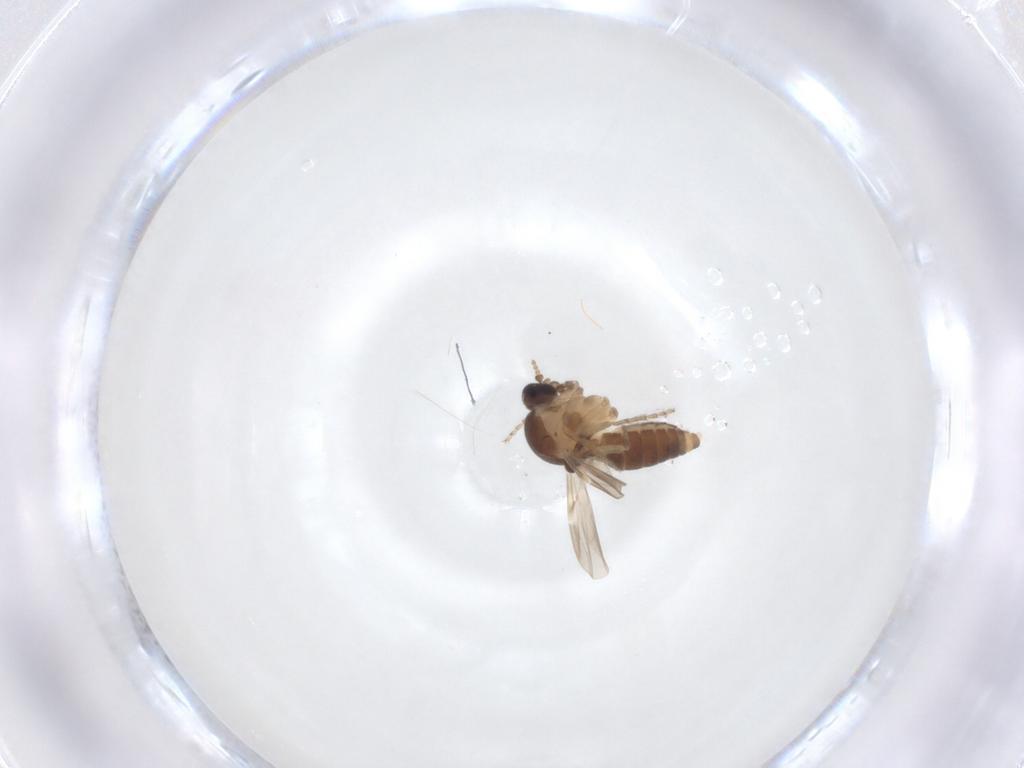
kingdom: Animalia
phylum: Arthropoda
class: Insecta
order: Diptera
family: Ceratopogonidae
